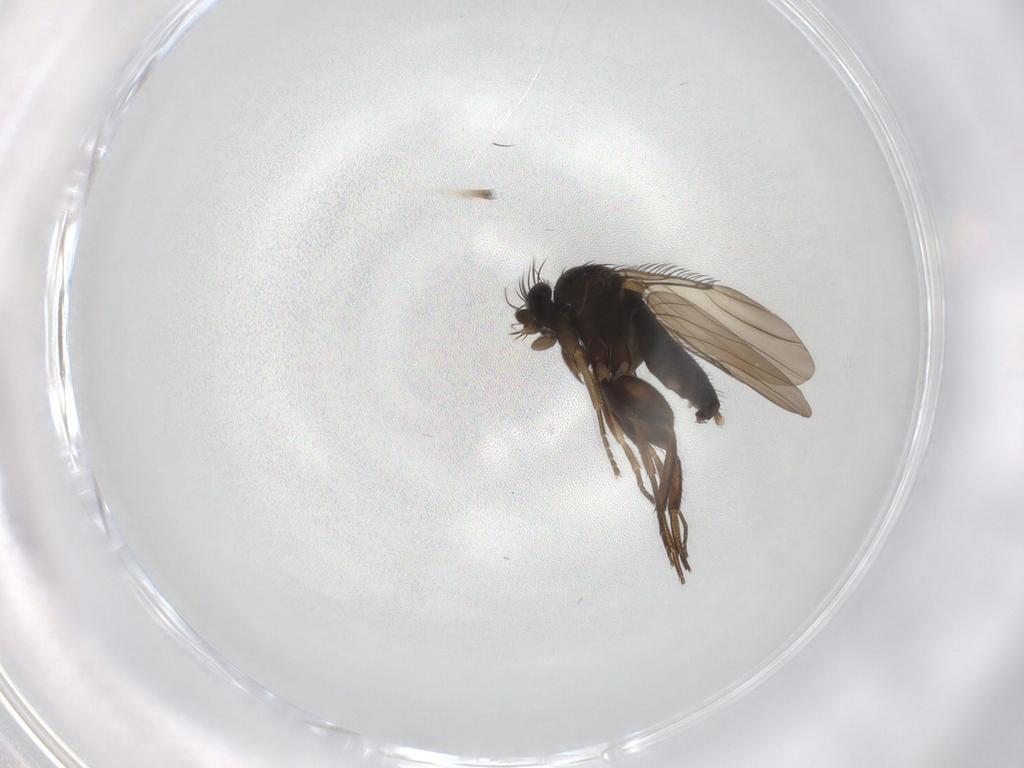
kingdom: Animalia
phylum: Arthropoda
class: Insecta
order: Diptera
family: Phoridae
